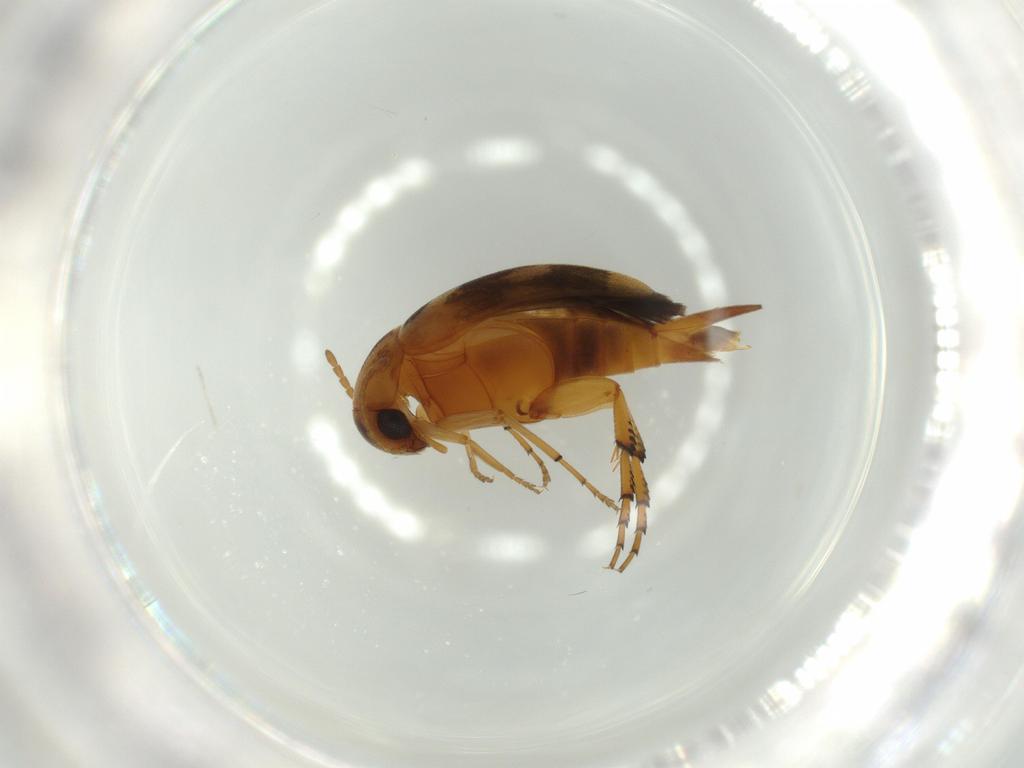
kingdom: Animalia
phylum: Arthropoda
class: Insecta
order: Coleoptera
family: Mordellidae
